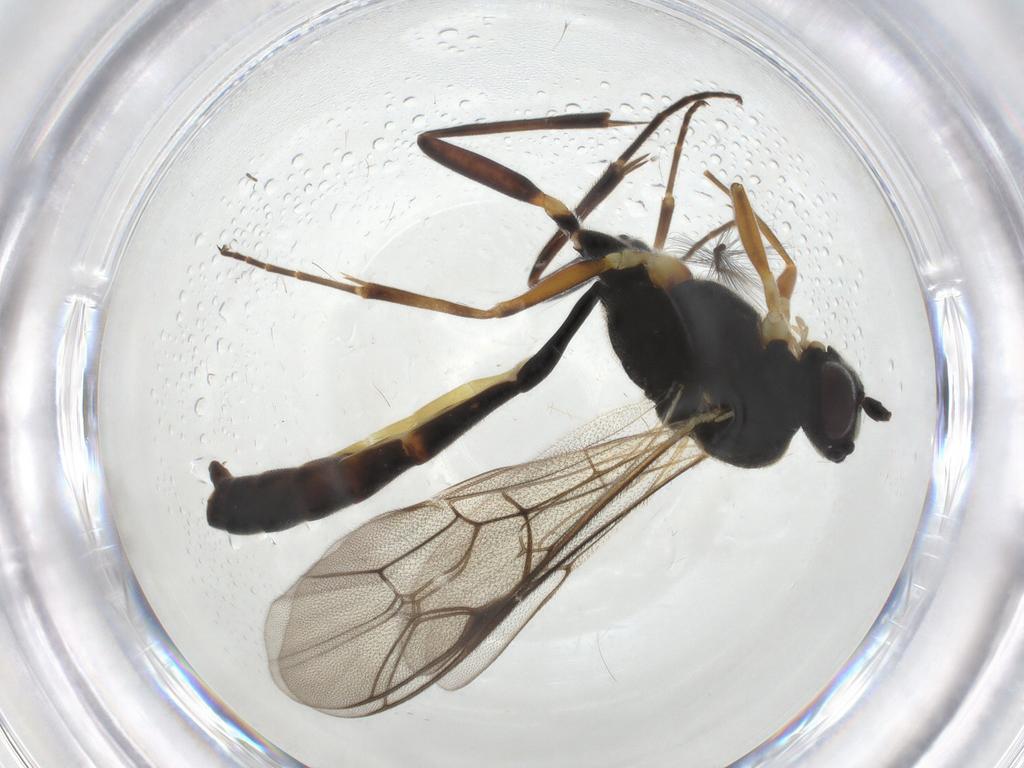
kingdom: Animalia
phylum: Arthropoda
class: Insecta
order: Hymenoptera
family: Ichneumonidae
